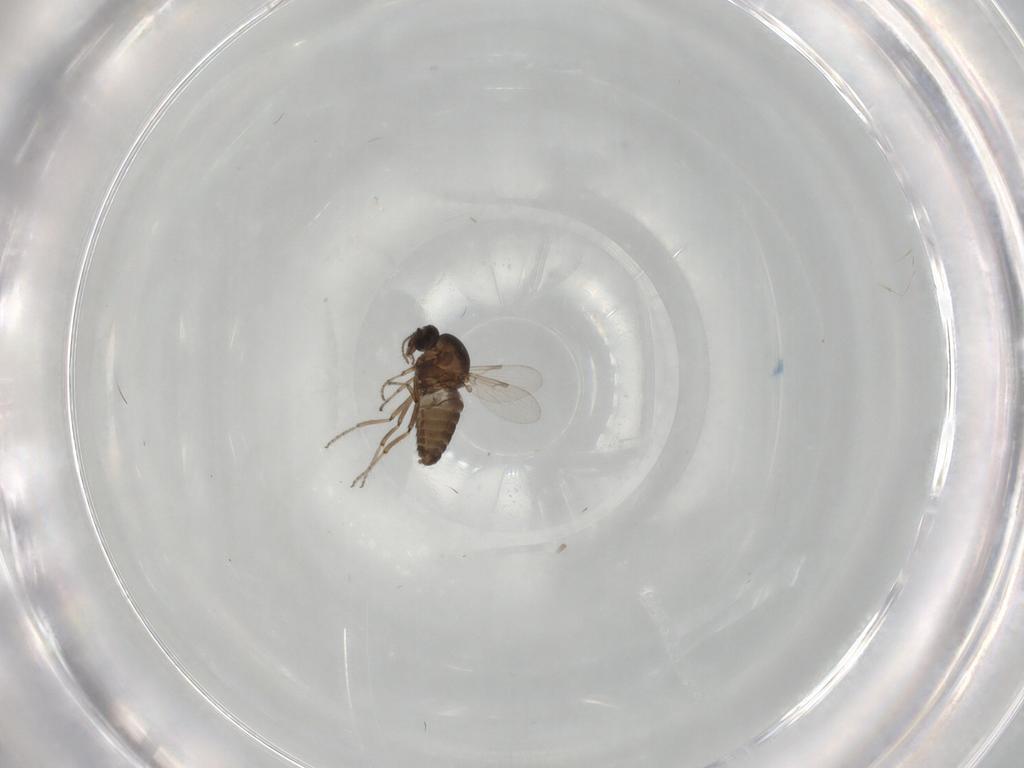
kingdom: Animalia
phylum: Arthropoda
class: Insecta
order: Diptera
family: Ceratopogonidae
